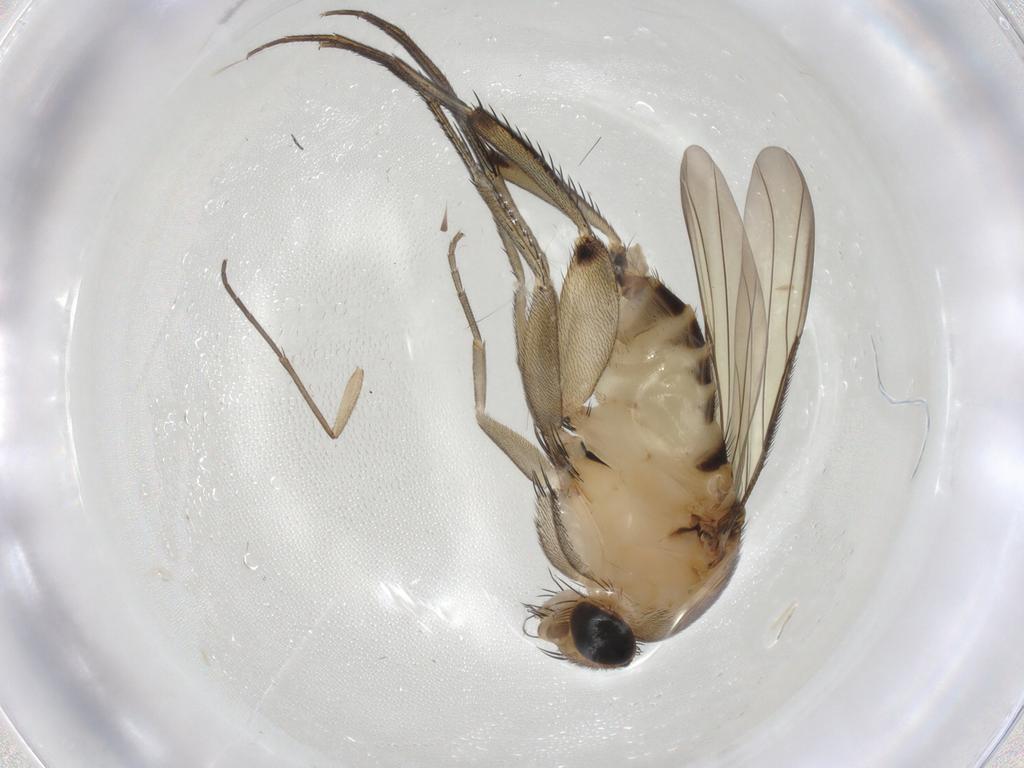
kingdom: Animalia
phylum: Arthropoda
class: Insecta
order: Diptera
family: Phoridae
